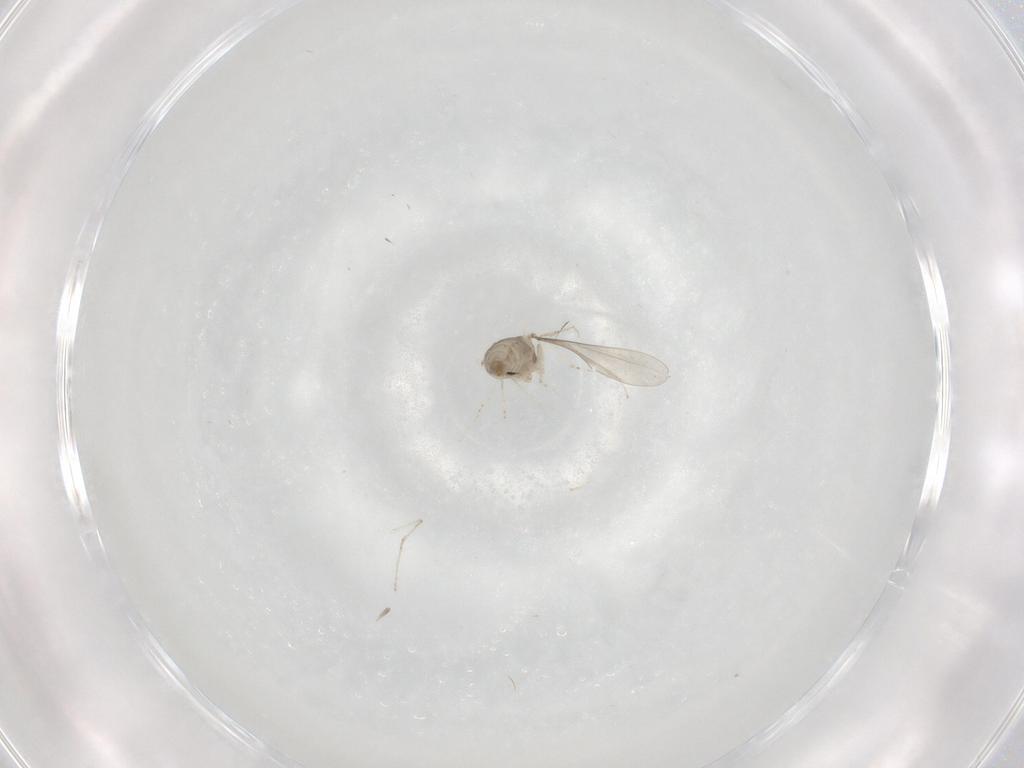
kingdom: Animalia
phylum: Arthropoda
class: Insecta
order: Diptera
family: Cecidomyiidae
